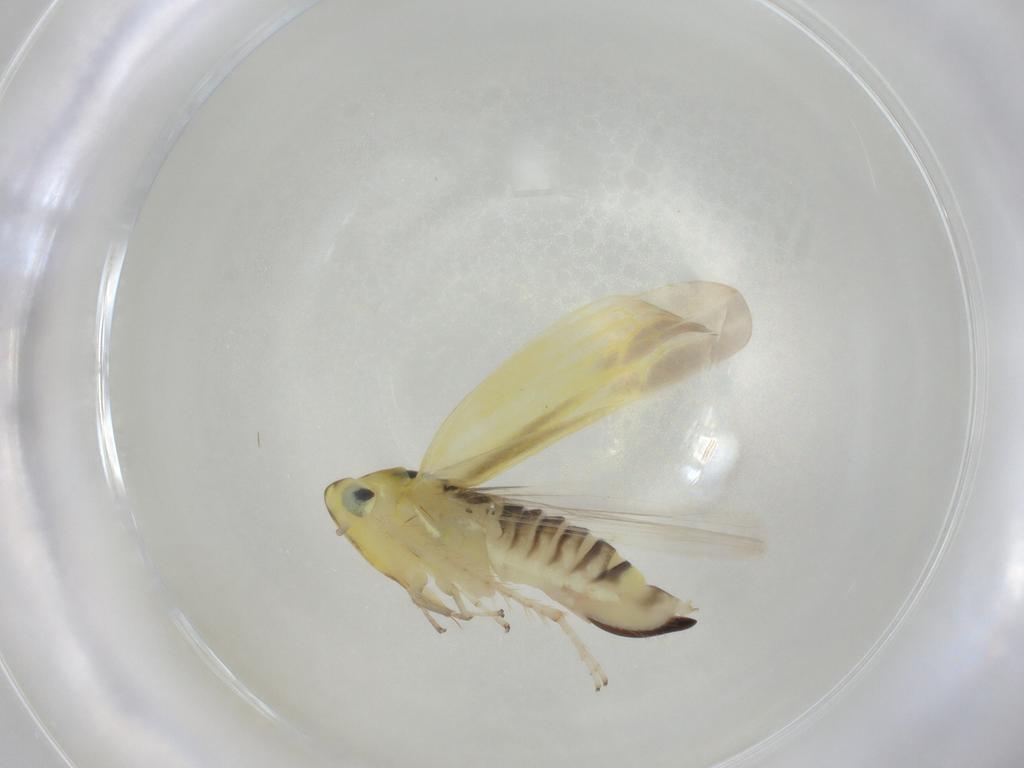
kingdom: Animalia
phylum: Arthropoda
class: Insecta
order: Hemiptera
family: Cicadellidae
